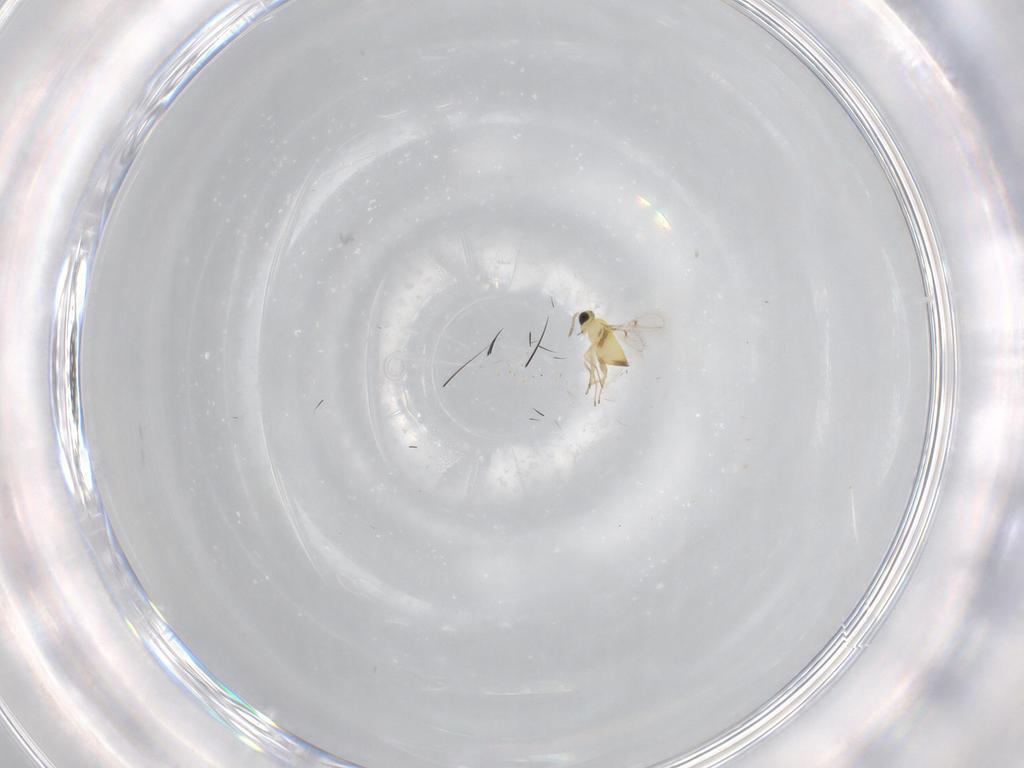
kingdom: Animalia
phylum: Arthropoda
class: Insecta
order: Hymenoptera
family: Trichogrammatidae
